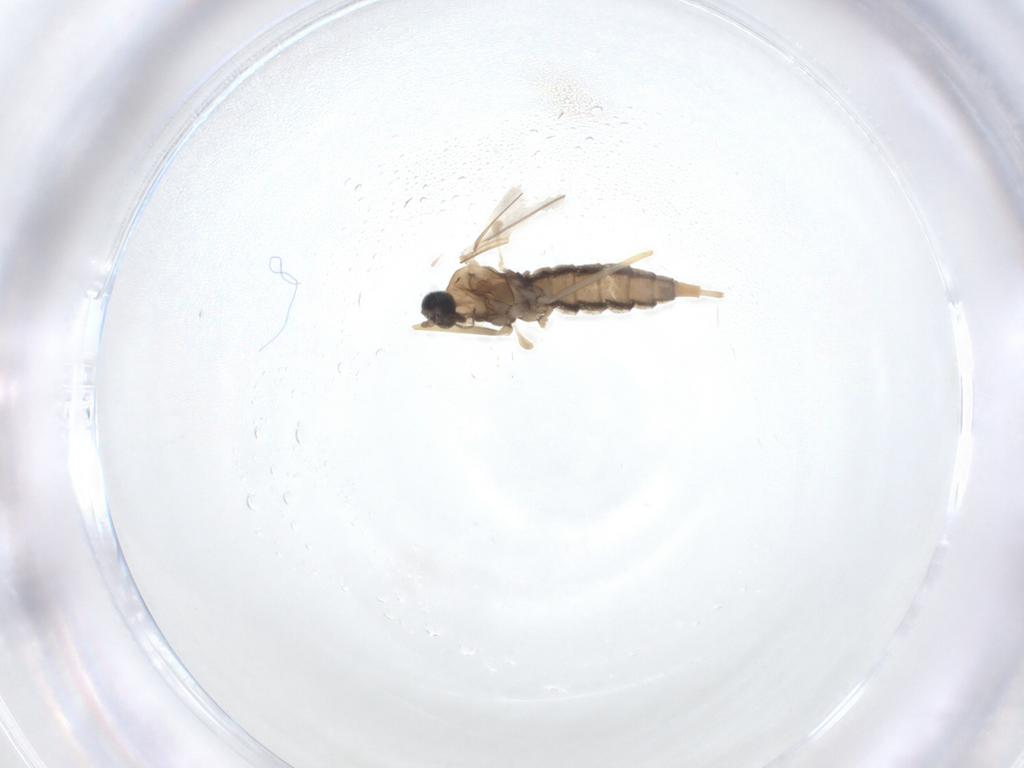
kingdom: Animalia
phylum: Arthropoda
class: Insecta
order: Diptera
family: Cecidomyiidae
